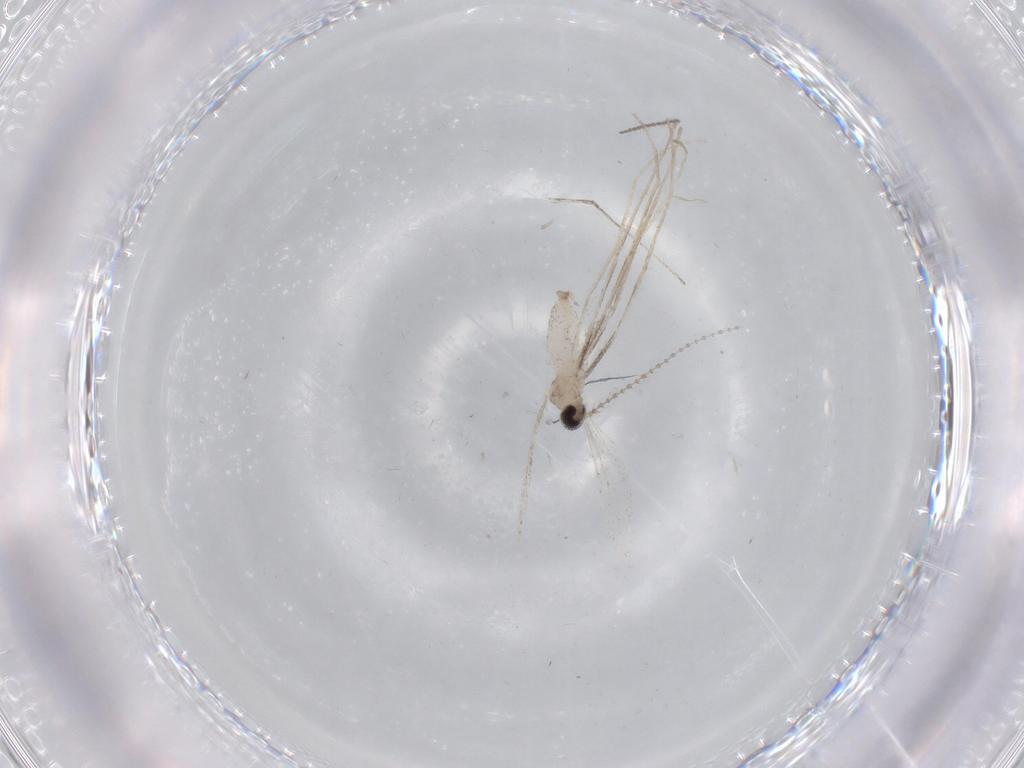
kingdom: Animalia
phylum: Arthropoda
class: Insecta
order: Diptera
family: Cecidomyiidae
